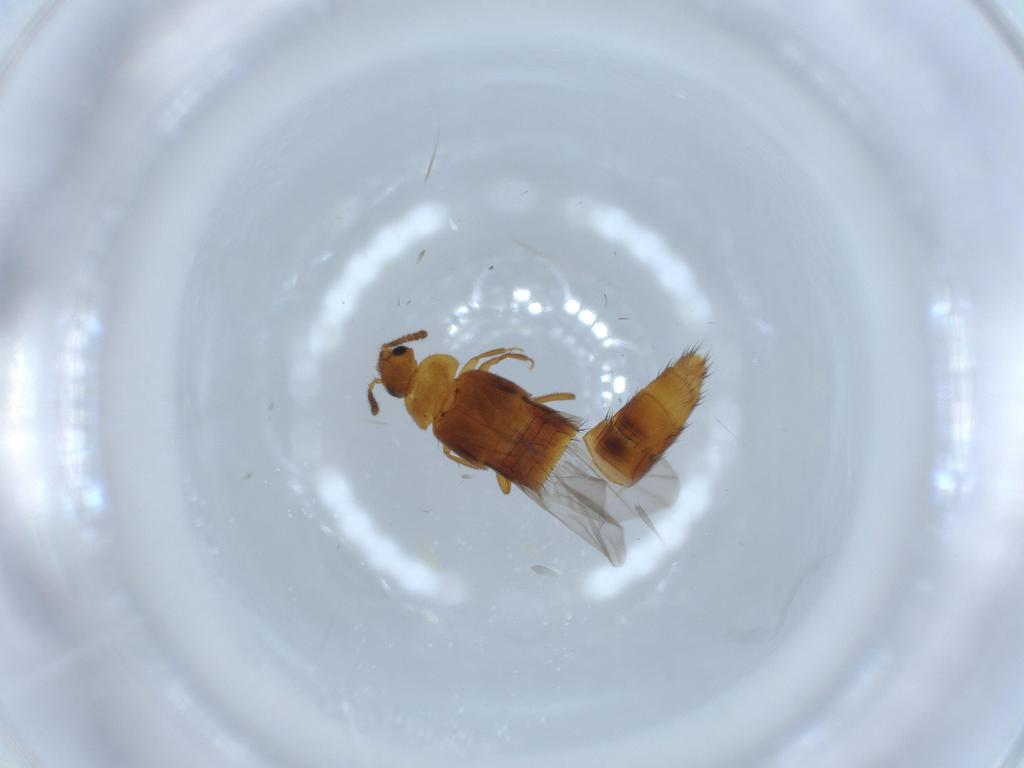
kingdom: Animalia
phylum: Arthropoda
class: Insecta
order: Coleoptera
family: Staphylinidae
